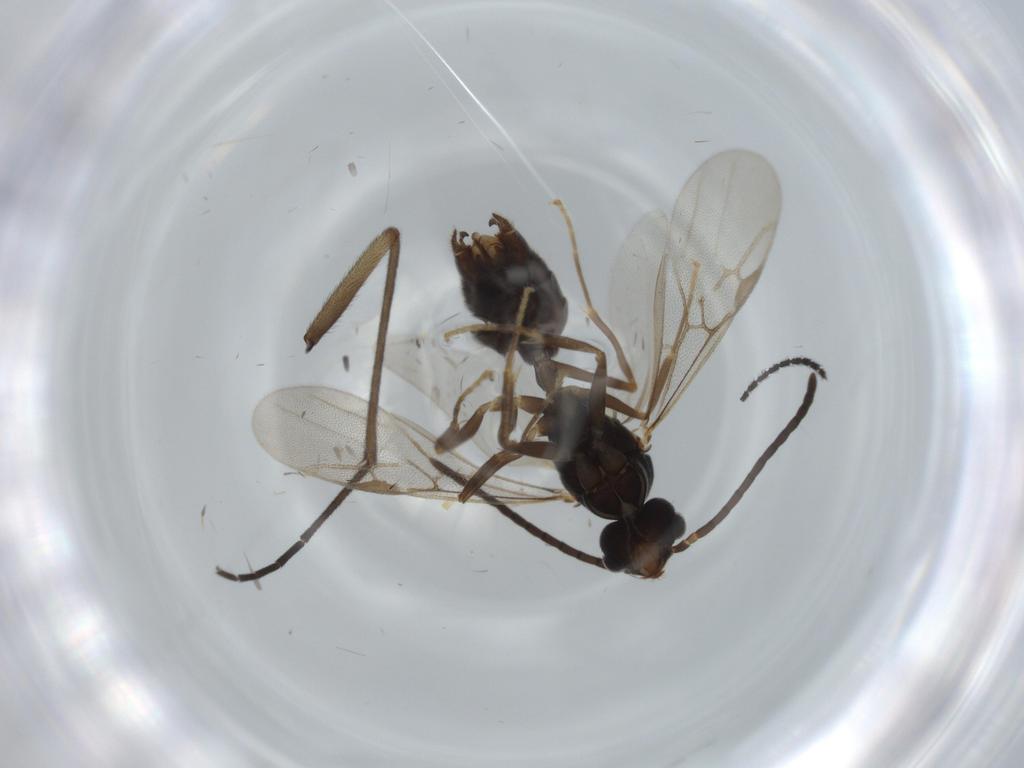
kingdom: Animalia
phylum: Arthropoda
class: Insecta
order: Hymenoptera
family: Formicidae
